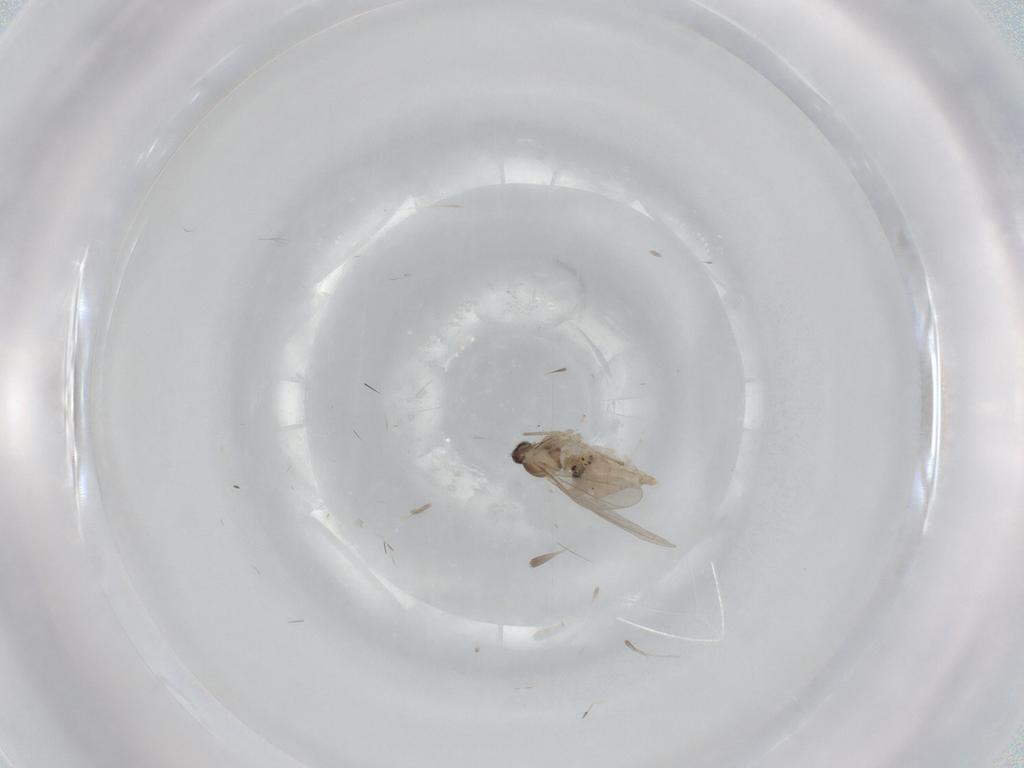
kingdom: Animalia
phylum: Arthropoda
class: Insecta
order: Diptera
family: Cecidomyiidae
